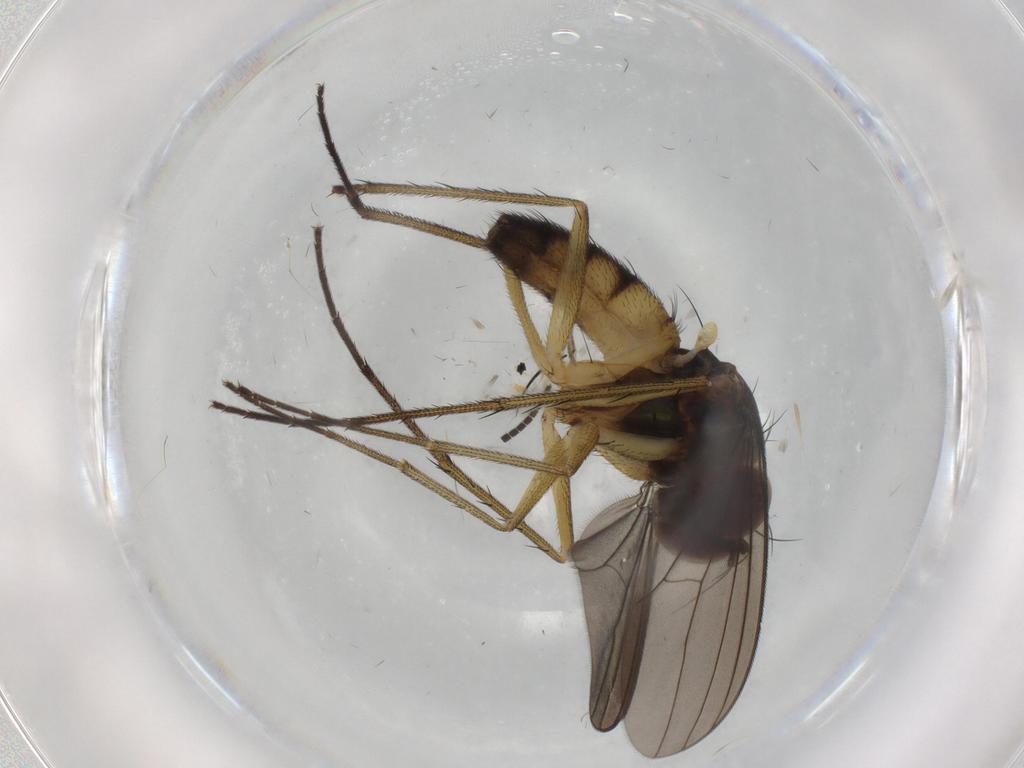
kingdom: Animalia
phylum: Arthropoda
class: Insecta
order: Diptera
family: Dolichopodidae
